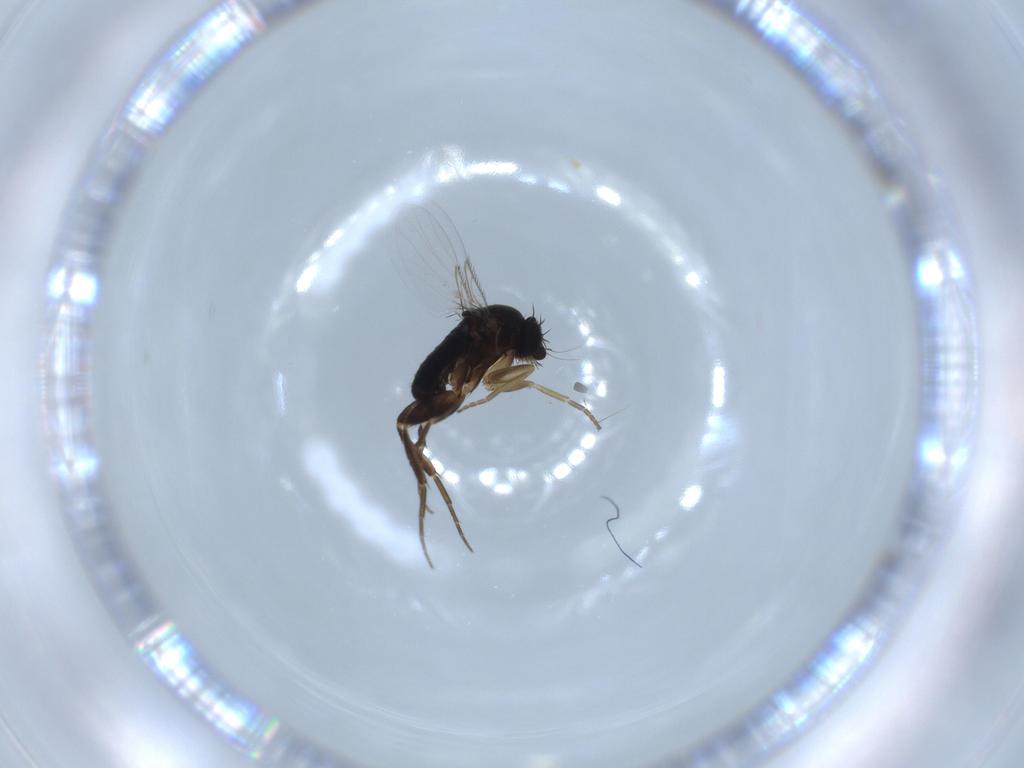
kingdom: Animalia
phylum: Arthropoda
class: Insecta
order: Diptera
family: Phoridae
